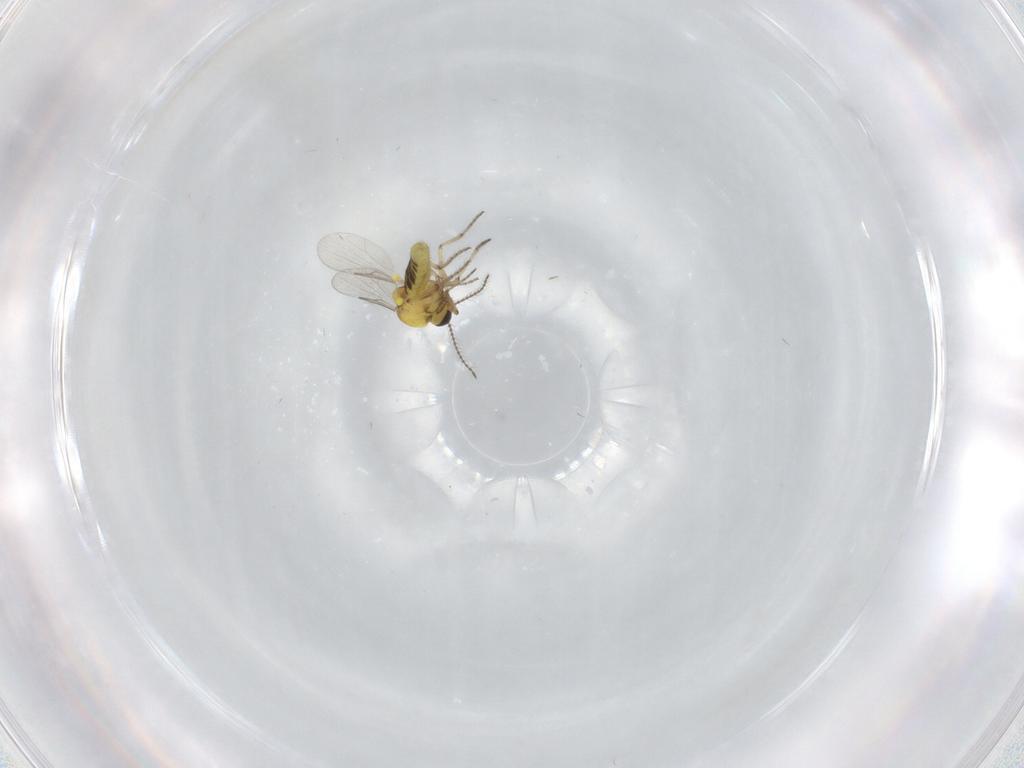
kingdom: Animalia
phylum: Arthropoda
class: Insecta
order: Diptera
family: Ceratopogonidae
